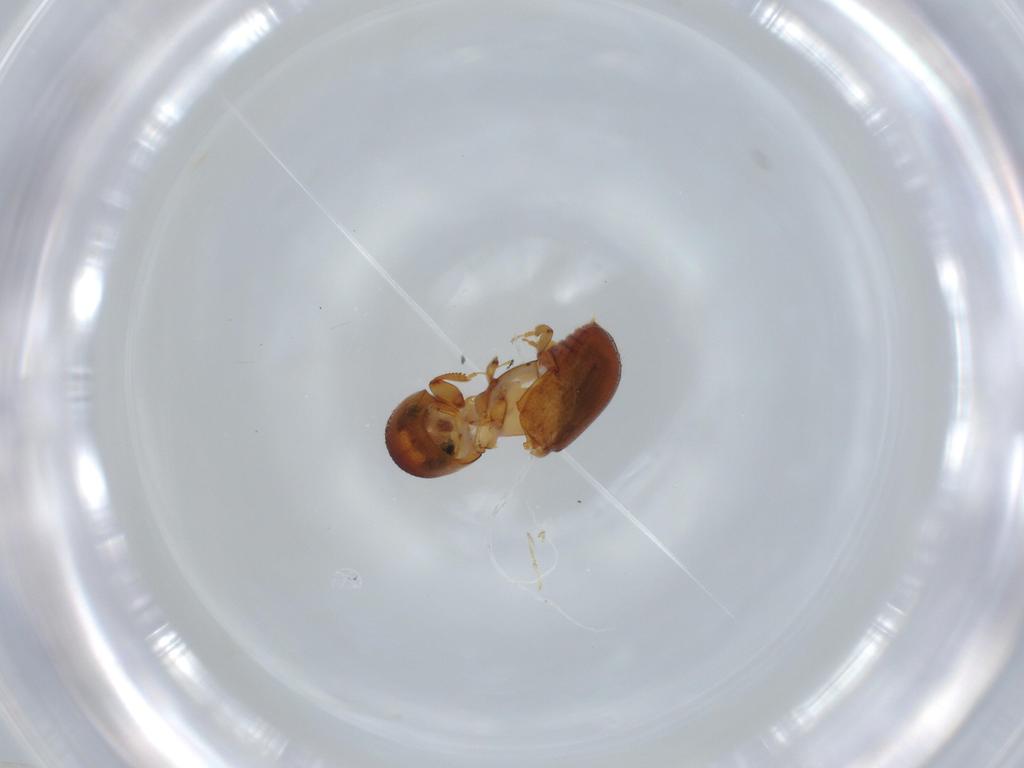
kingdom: Animalia
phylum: Arthropoda
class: Insecta
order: Coleoptera
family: Curculionidae
